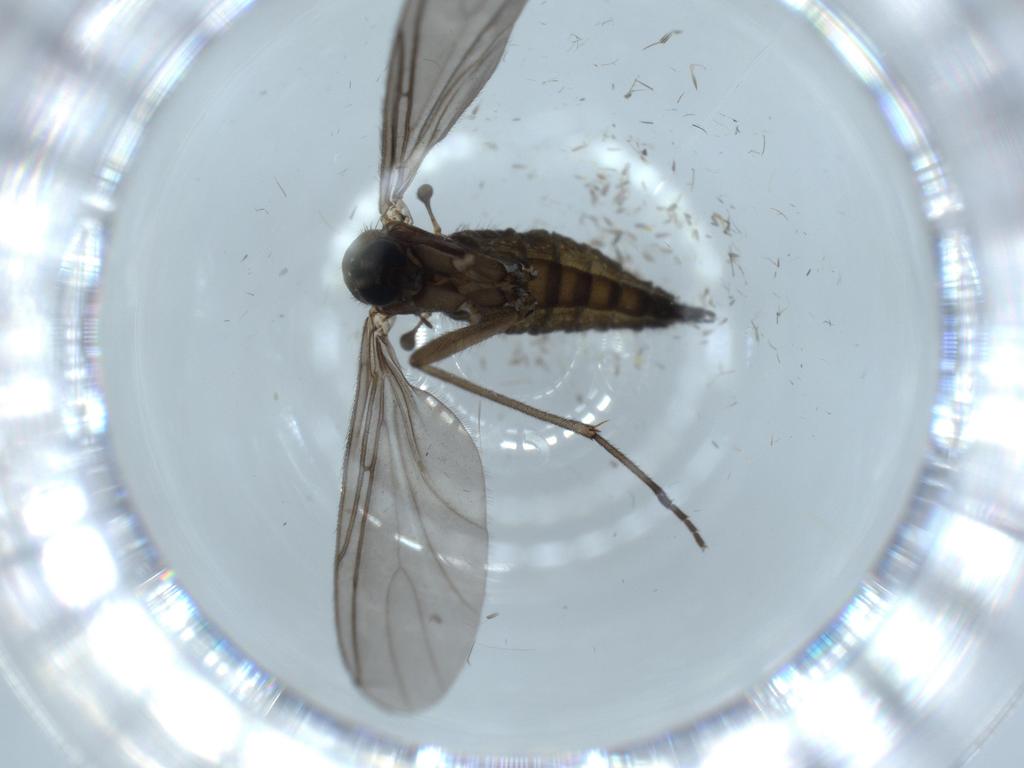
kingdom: Animalia
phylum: Arthropoda
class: Insecta
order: Diptera
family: Sciaridae
